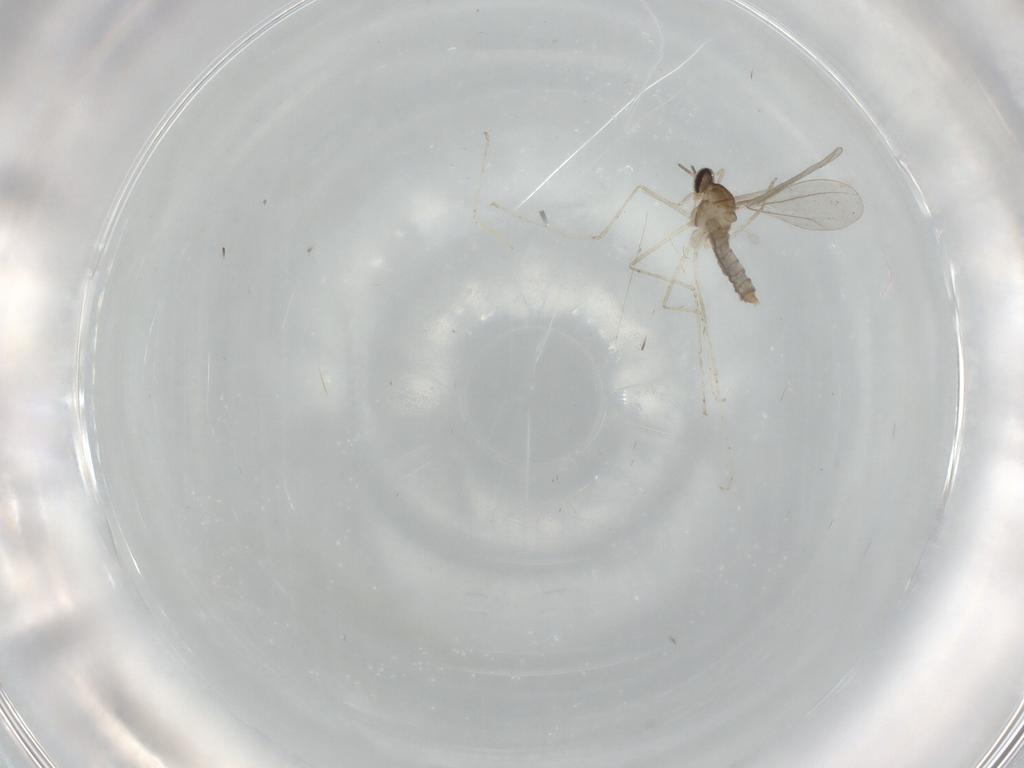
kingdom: Animalia
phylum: Arthropoda
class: Insecta
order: Diptera
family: Cecidomyiidae
